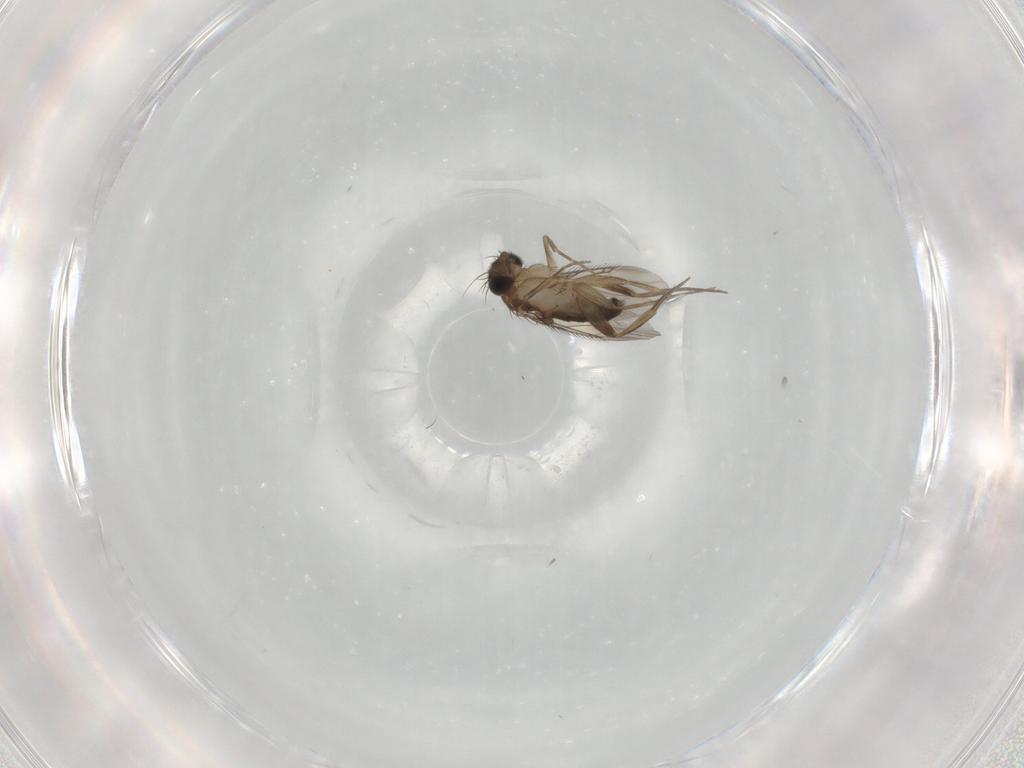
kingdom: Animalia
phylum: Arthropoda
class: Insecta
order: Diptera
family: Phoridae
